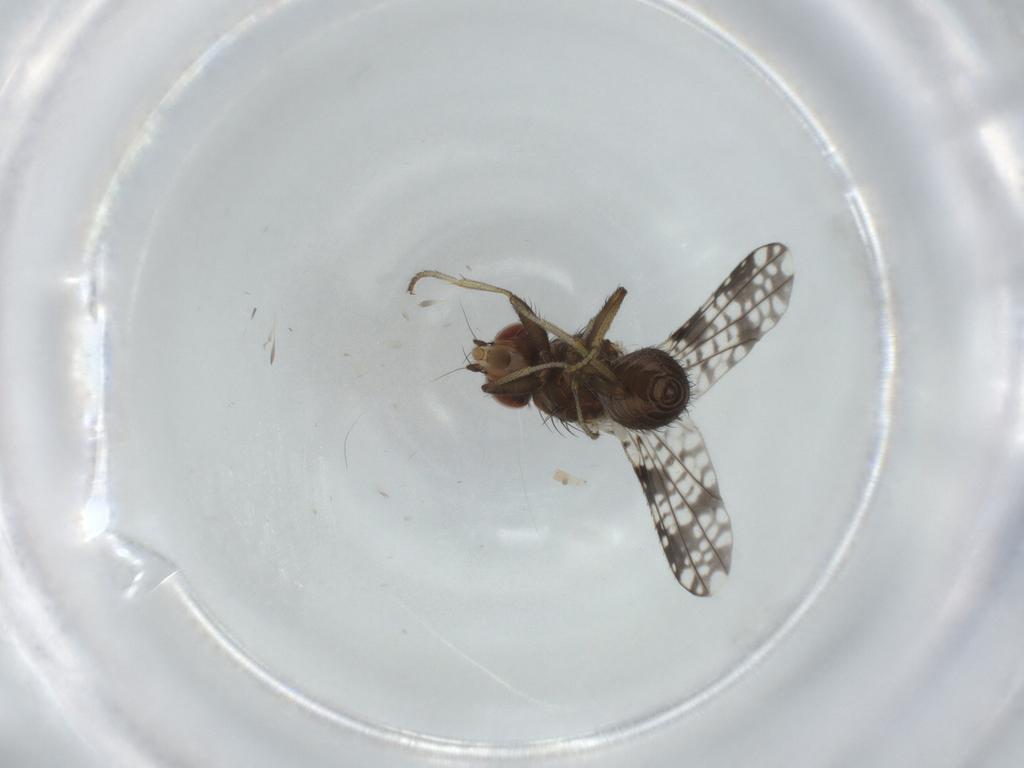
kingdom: Animalia
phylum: Arthropoda
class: Insecta
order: Diptera
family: Tephritidae
